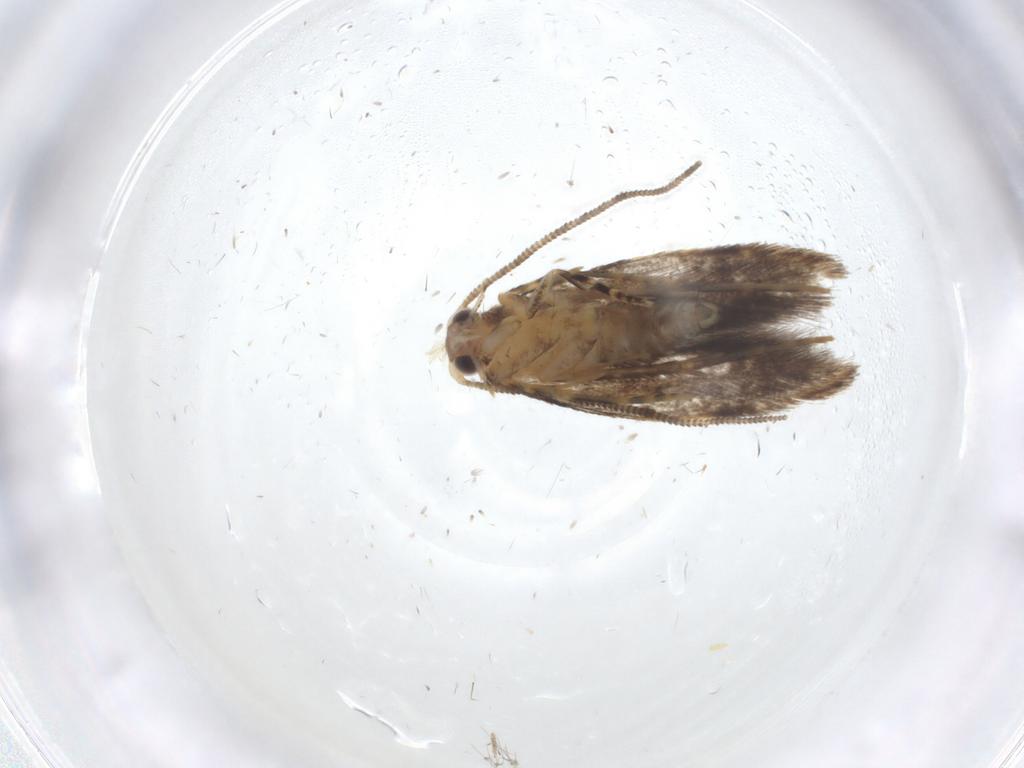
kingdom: Animalia
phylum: Arthropoda
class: Insecta
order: Lepidoptera
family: Tineidae
